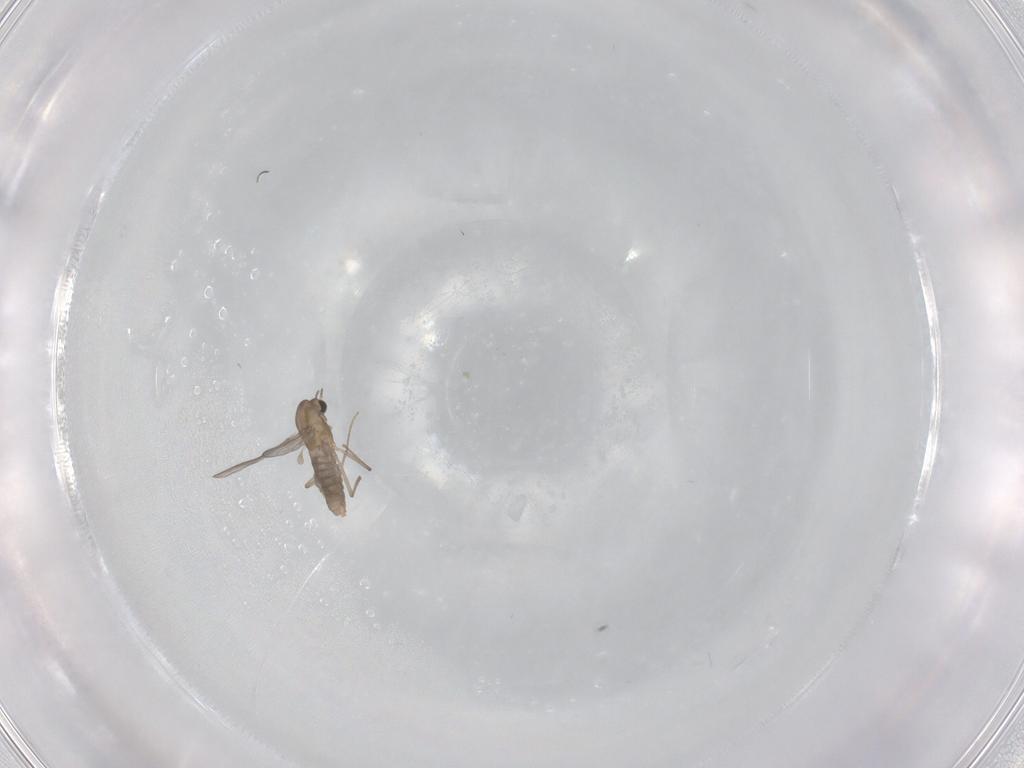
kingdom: Animalia
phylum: Arthropoda
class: Insecta
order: Diptera
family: Chironomidae
